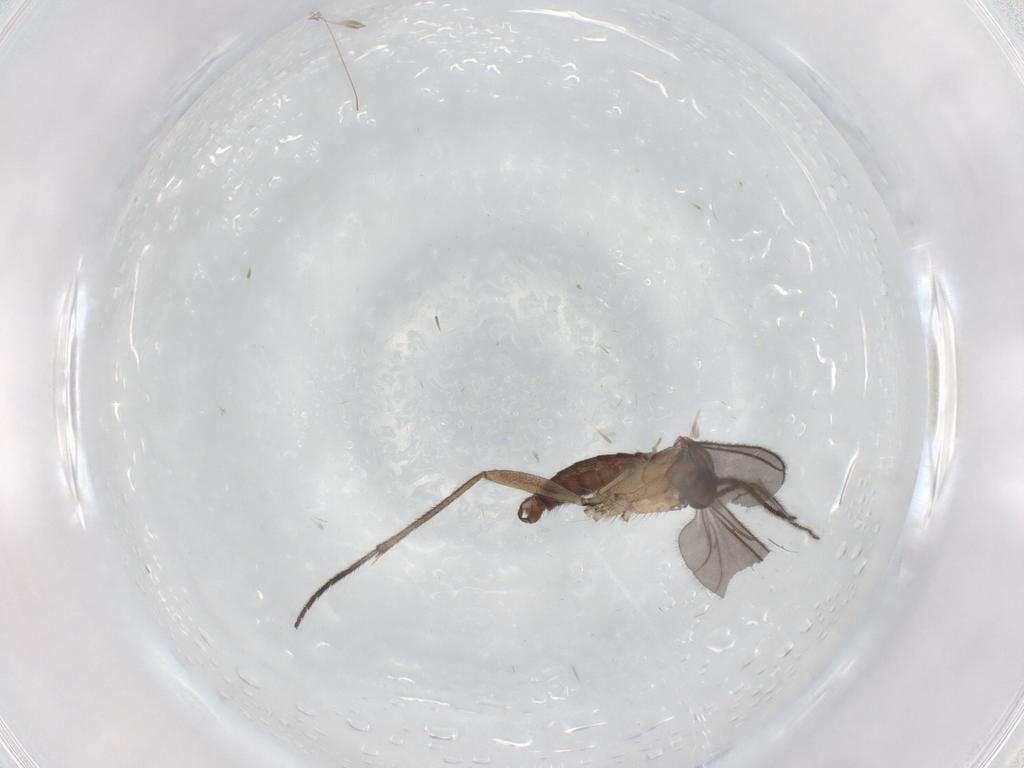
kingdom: Animalia
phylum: Arthropoda
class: Insecta
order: Diptera
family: Sciaridae
